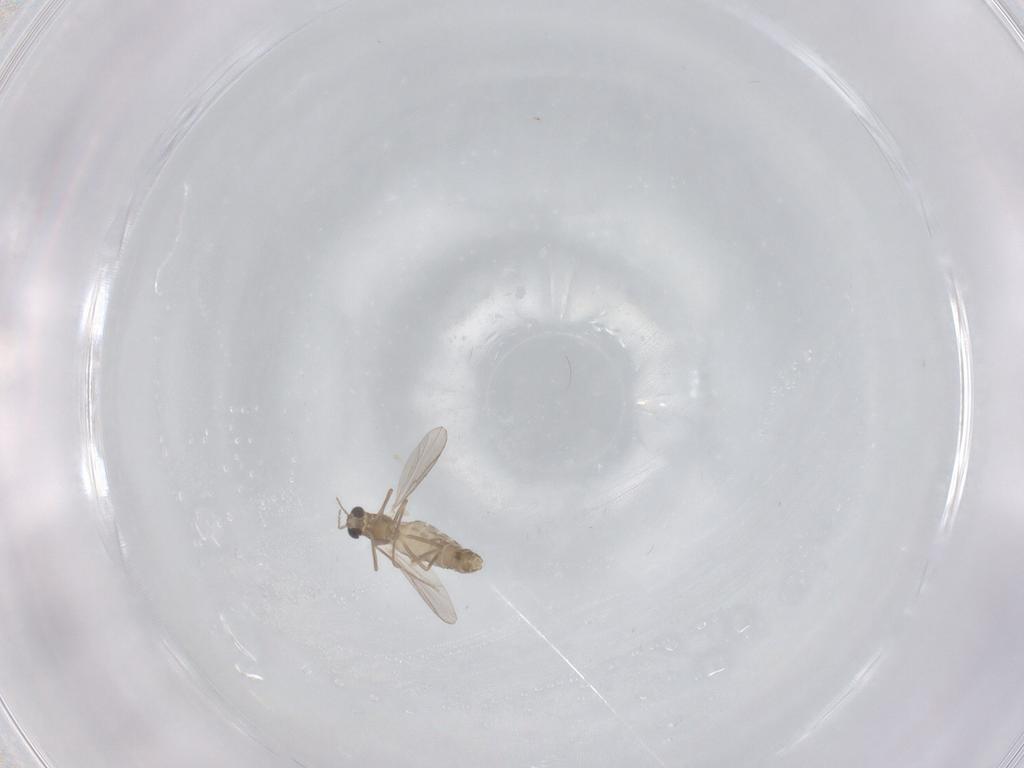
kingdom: Animalia
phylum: Arthropoda
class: Insecta
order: Diptera
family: Chironomidae
